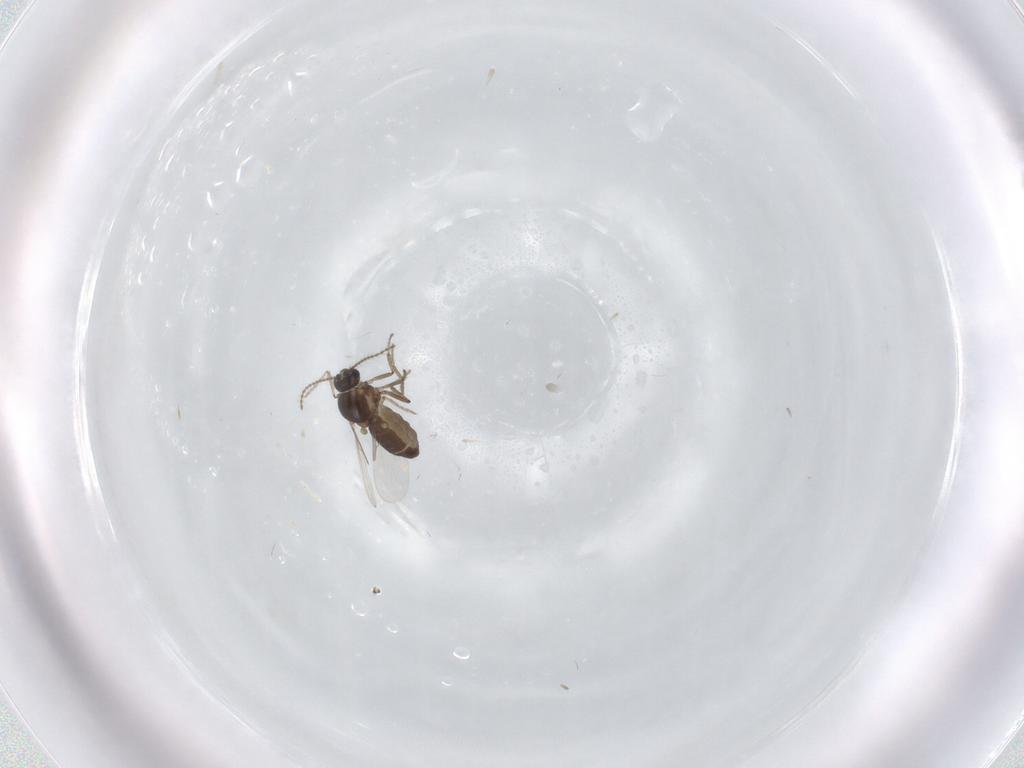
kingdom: Animalia
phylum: Arthropoda
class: Insecta
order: Diptera
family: Ceratopogonidae
